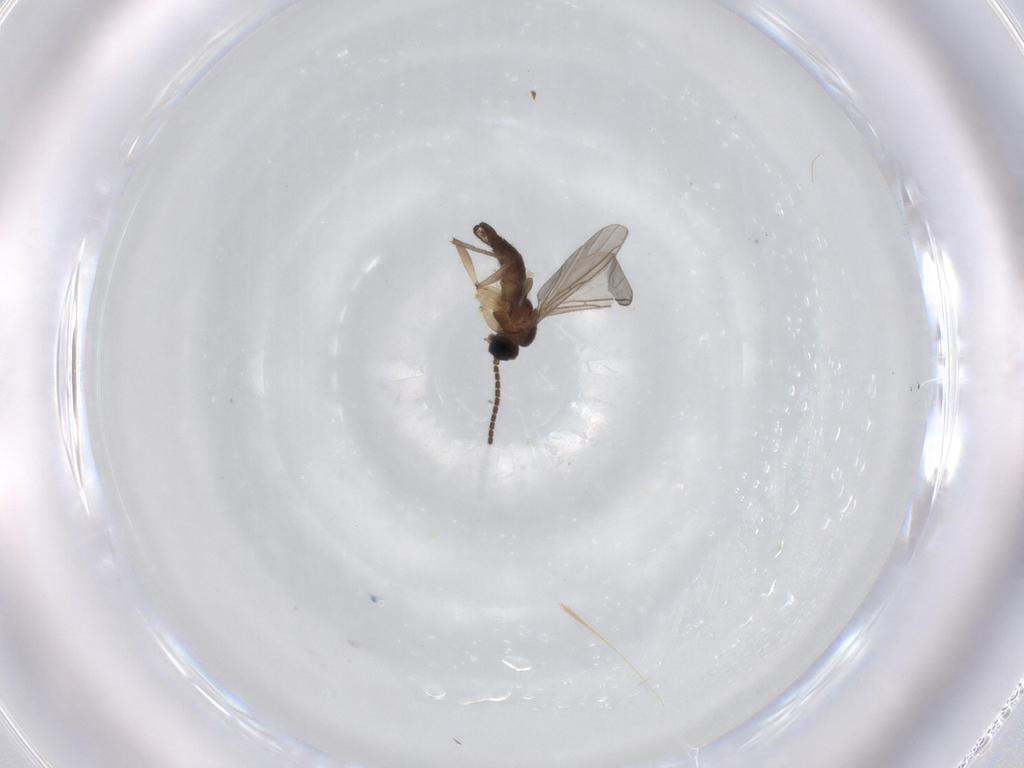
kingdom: Animalia
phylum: Arthropoda
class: Insecta
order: Diptera
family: Sciaridae
